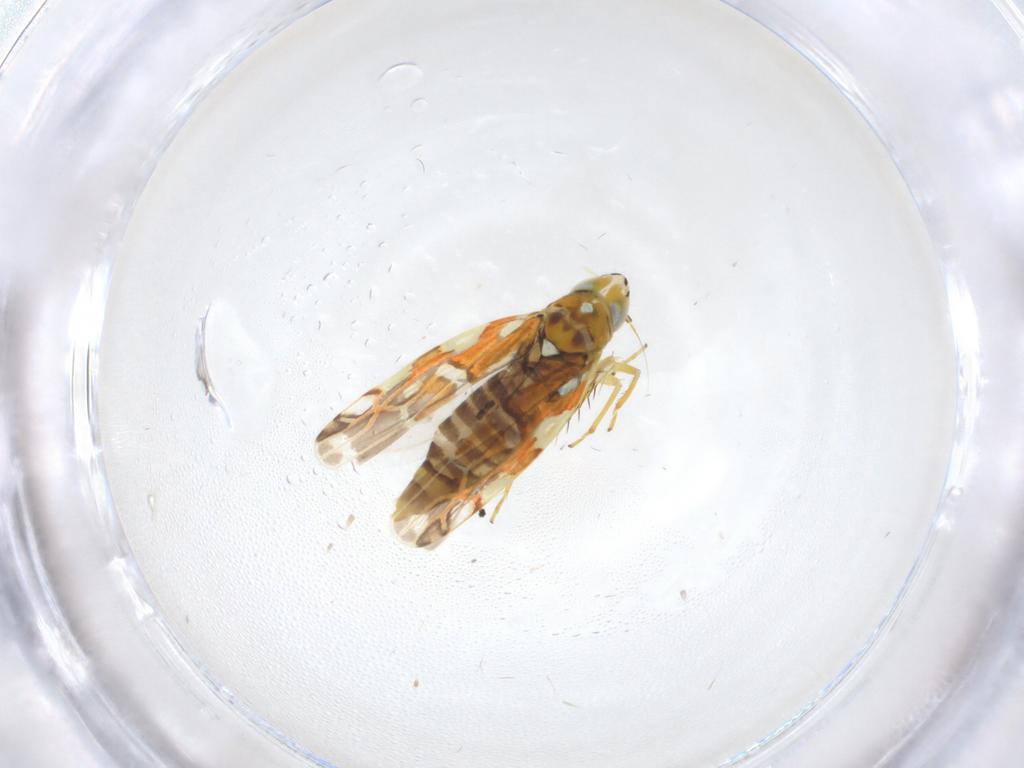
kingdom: Animalia
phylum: Arthropoda
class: Insecta
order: Hemiptera
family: Cicadellidae
